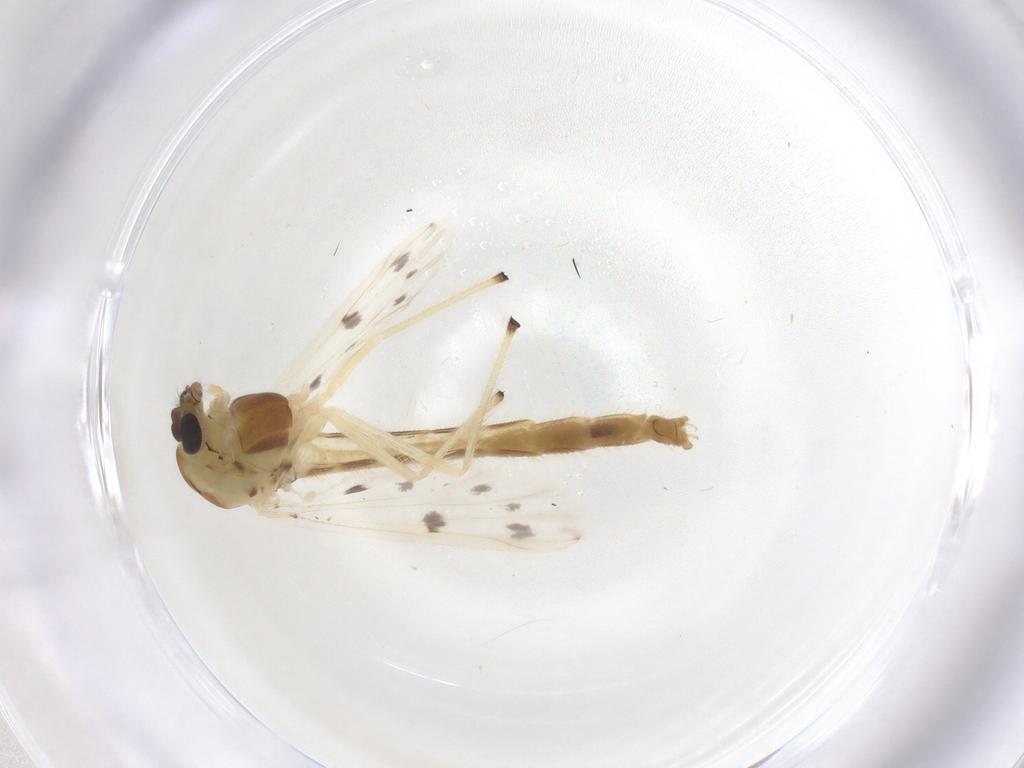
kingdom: Animalia
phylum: Arthropoda
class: Insecta
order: Diptera
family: Chironomidae
